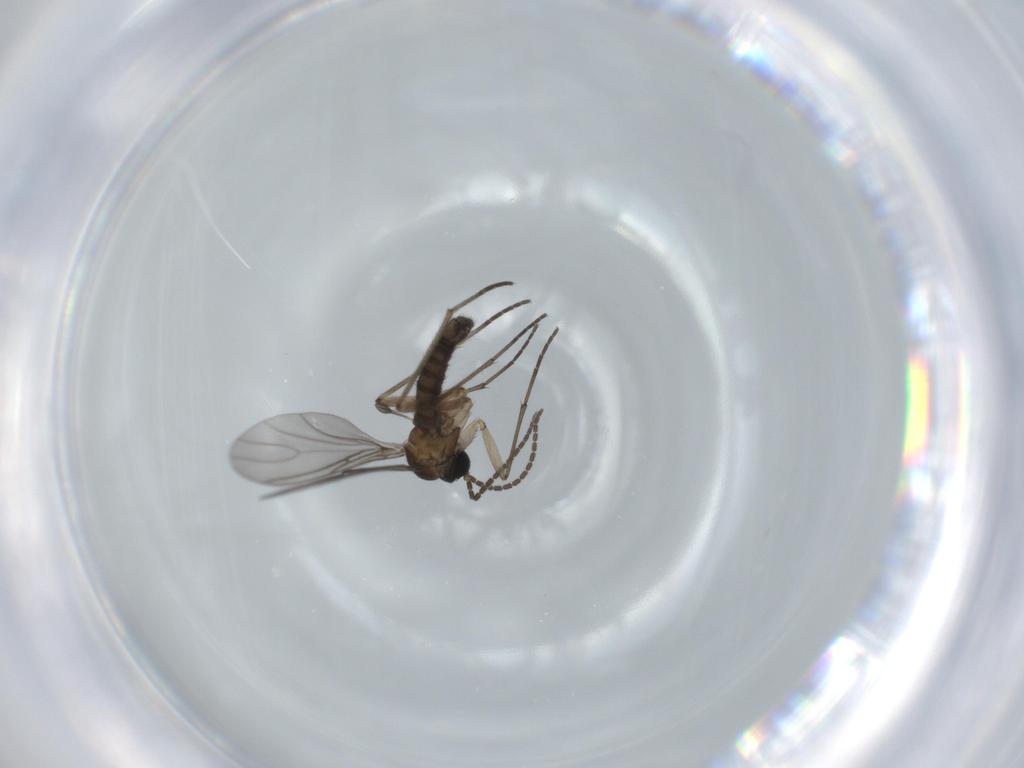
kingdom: Animalia
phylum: Arthropoda
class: Insecta
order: Diptera
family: Sciaridae
